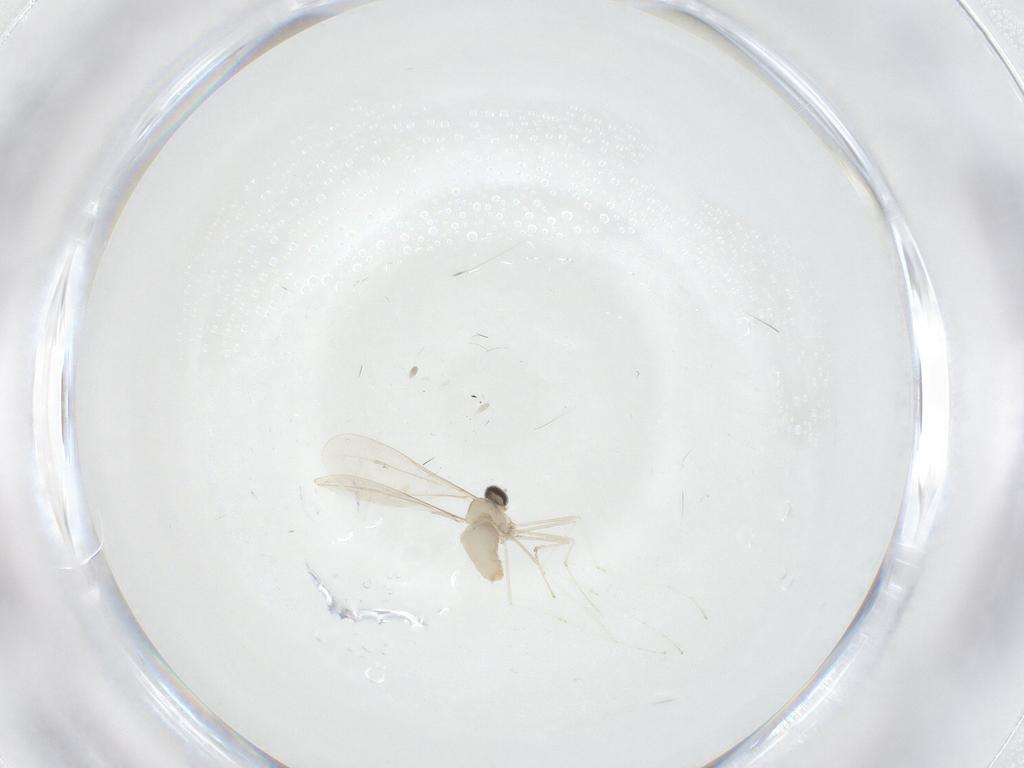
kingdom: Animalia
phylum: Arthropoda
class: Insecta
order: Diptera
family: Cecidomyiidae
